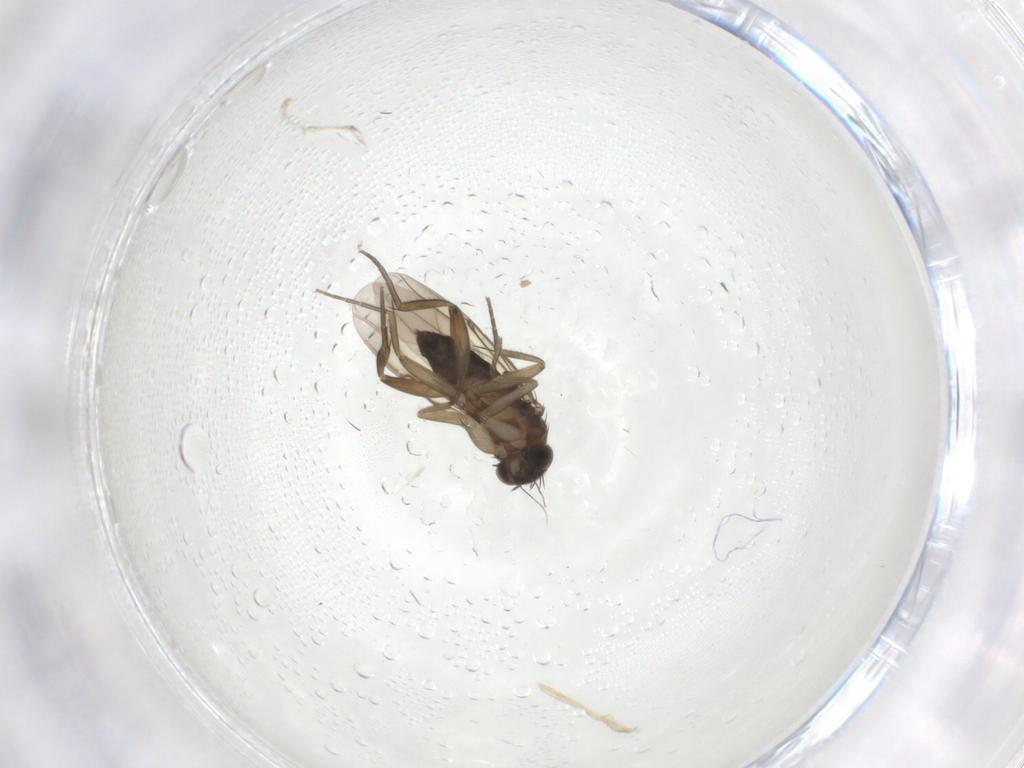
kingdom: Animalia
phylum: Arthropoda
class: Insecta
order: Diptera
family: Phoridae
